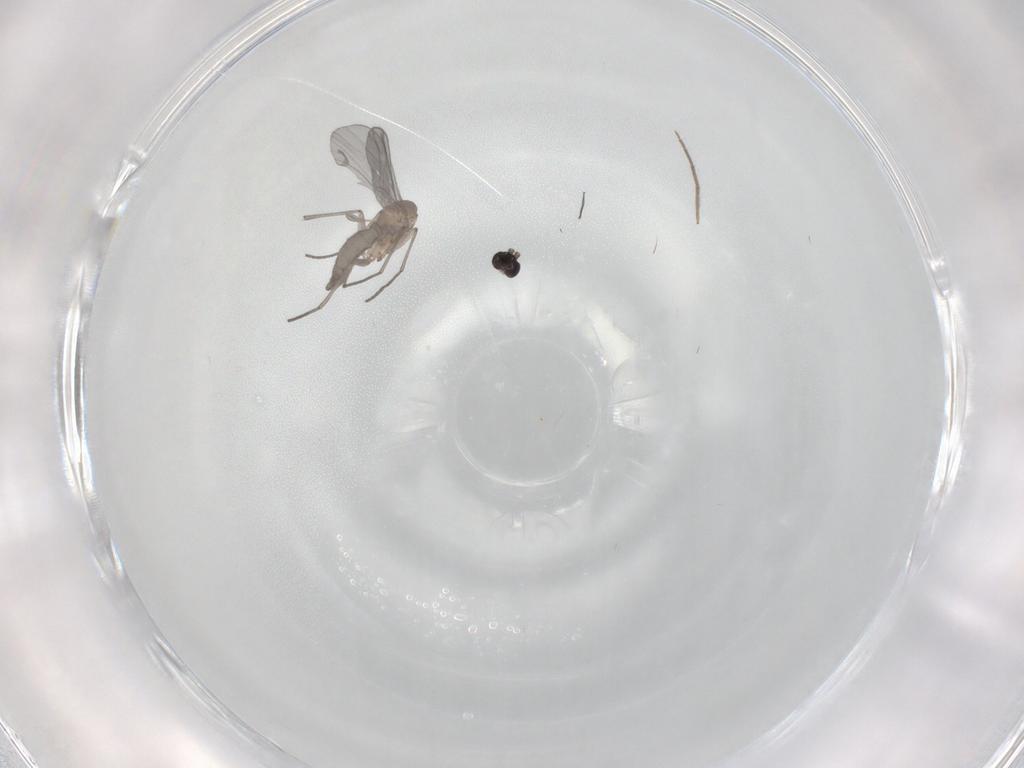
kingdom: Animalia
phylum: Arthropoda
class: Insecta
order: Diptera
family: Chironomidae
